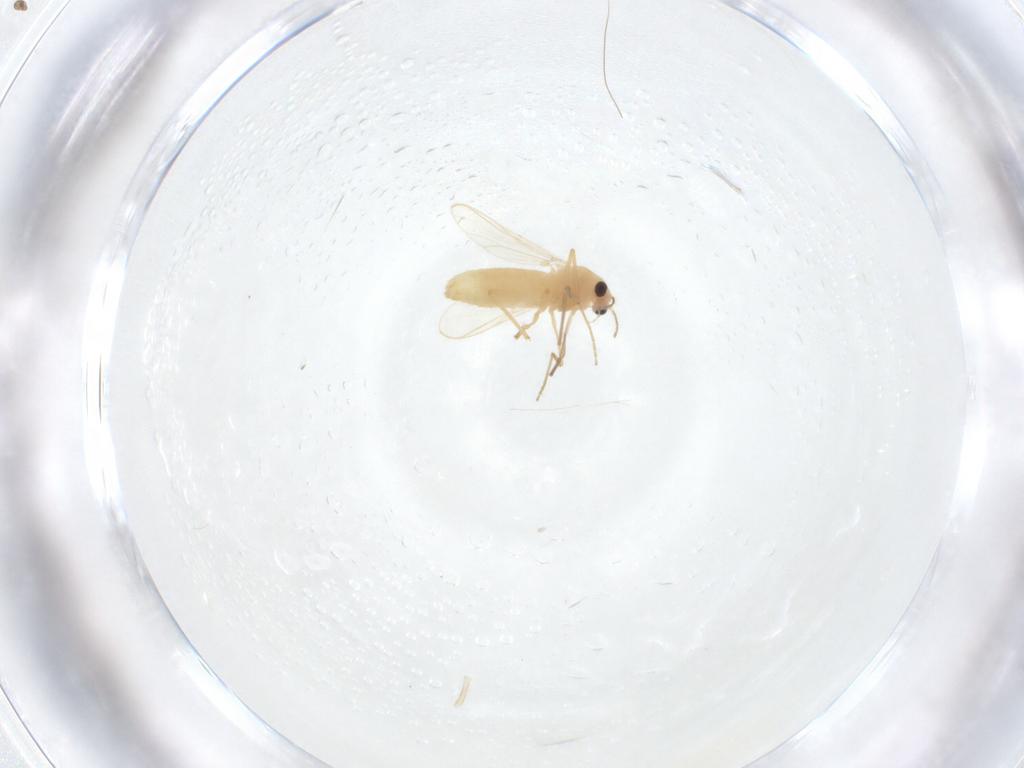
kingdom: Animalia
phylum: Arthropoda
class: Insecta
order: Diptera
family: Chironomidae
